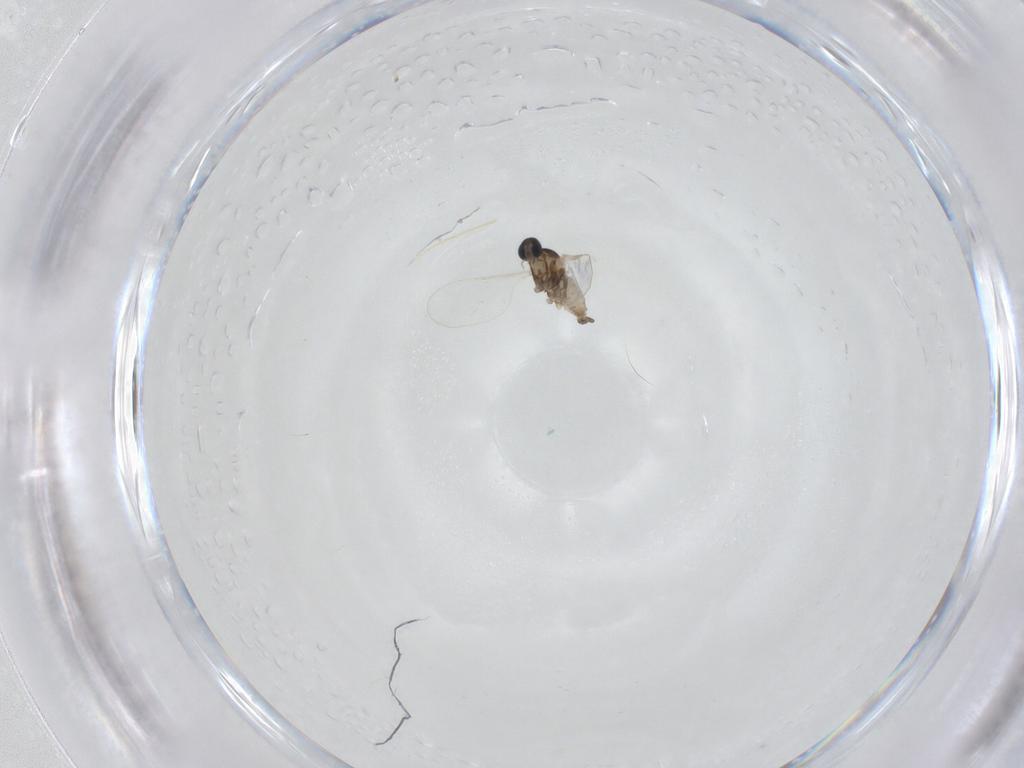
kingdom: Animalia
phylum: Arthropoda
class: Insecta
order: Diptera
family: Cecidomyiidae
